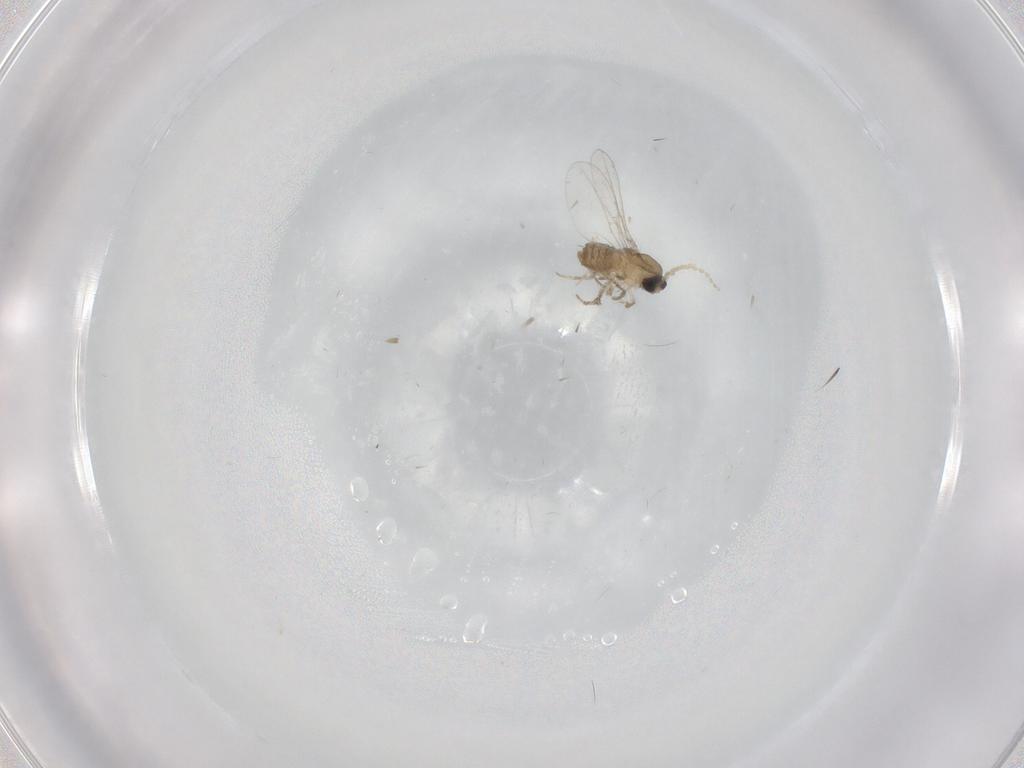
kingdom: Animalia
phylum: Arthropoda
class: Insecta
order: Diptera
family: Cecidomyiidae
